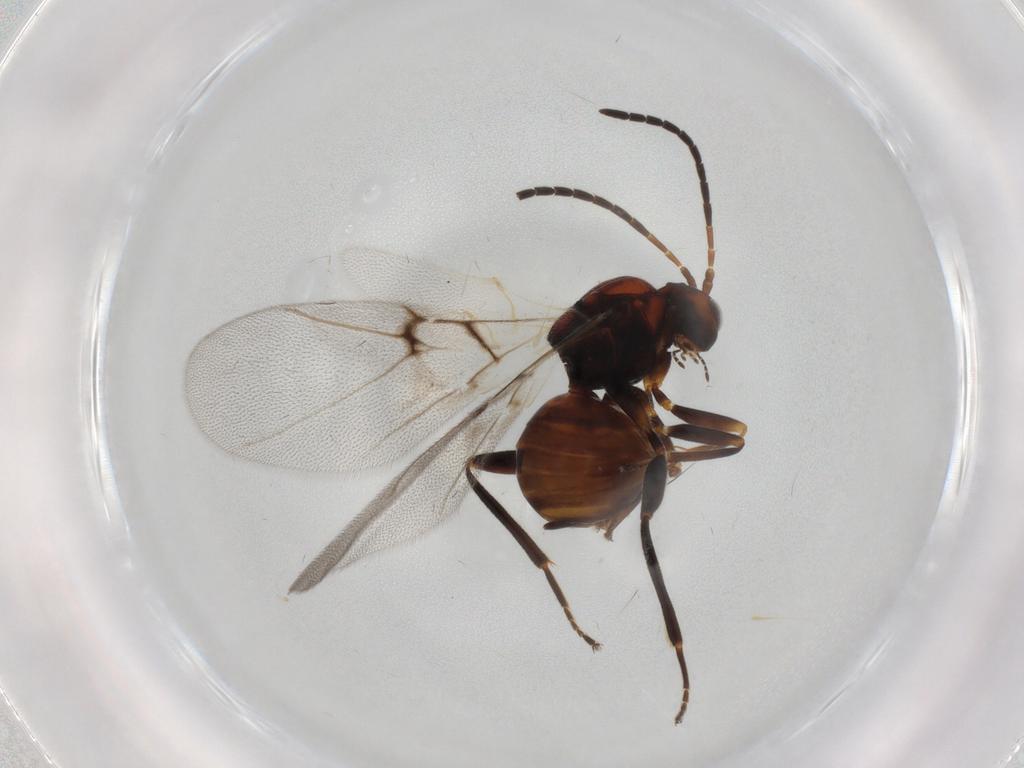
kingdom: Animalia
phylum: Arthropoda
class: Insecta
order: Hymenoptera
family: Cynipidae
